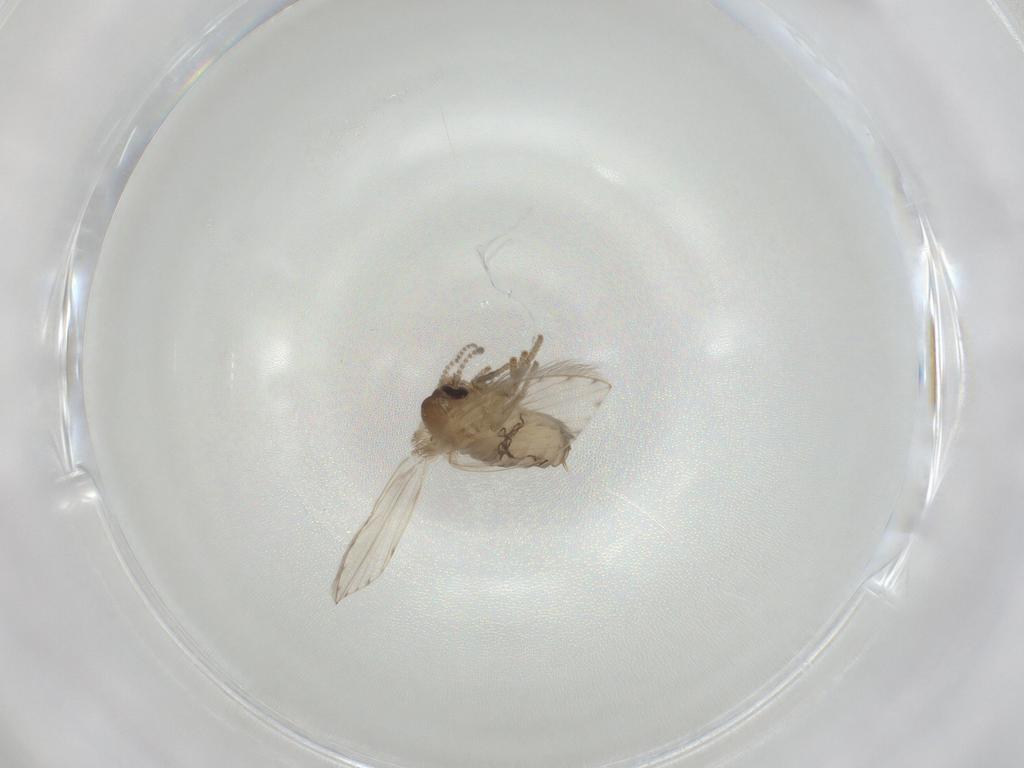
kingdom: Animalia
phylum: Arthropoda
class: Insecta
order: Diptera
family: Psychodidae
